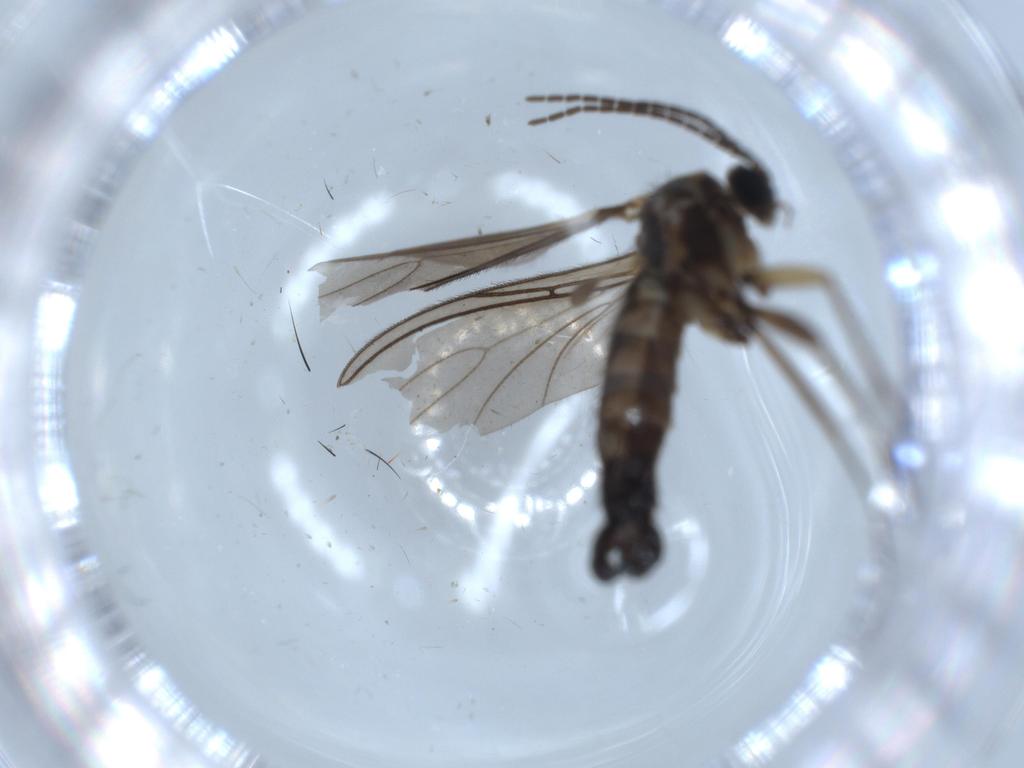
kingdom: Animalia
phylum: Arthropoda
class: Insecta
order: Diptera
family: Sciaridae
